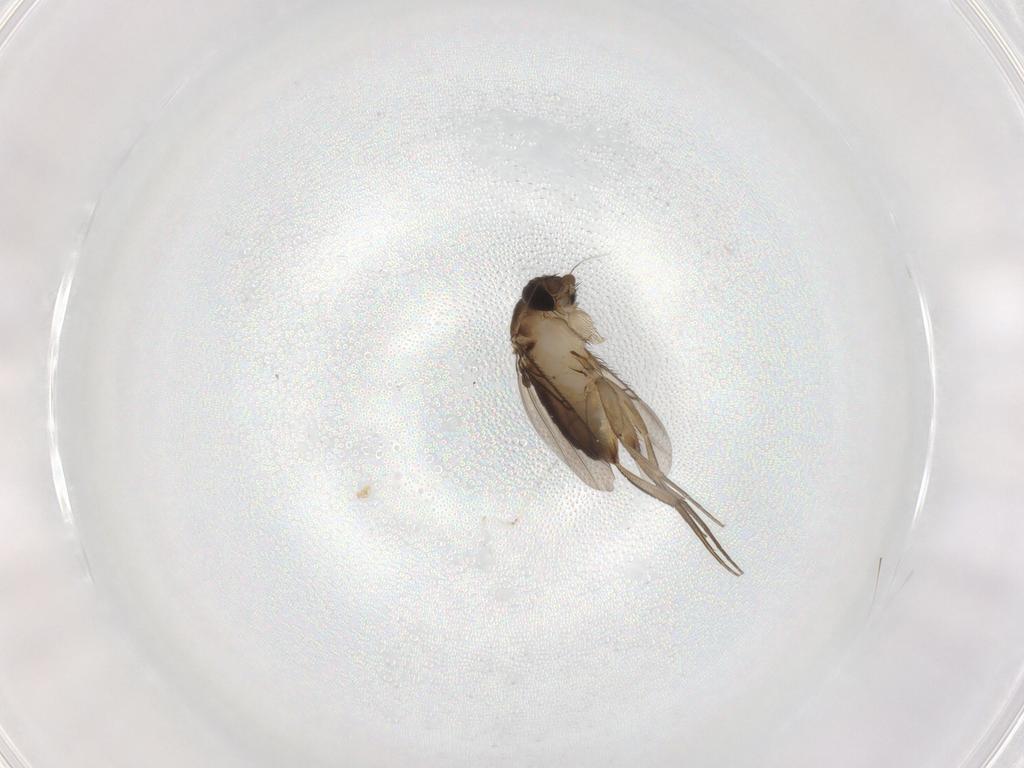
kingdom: Animalia
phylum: Arthropoda
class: Insecta
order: Diptera
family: Phoridae
